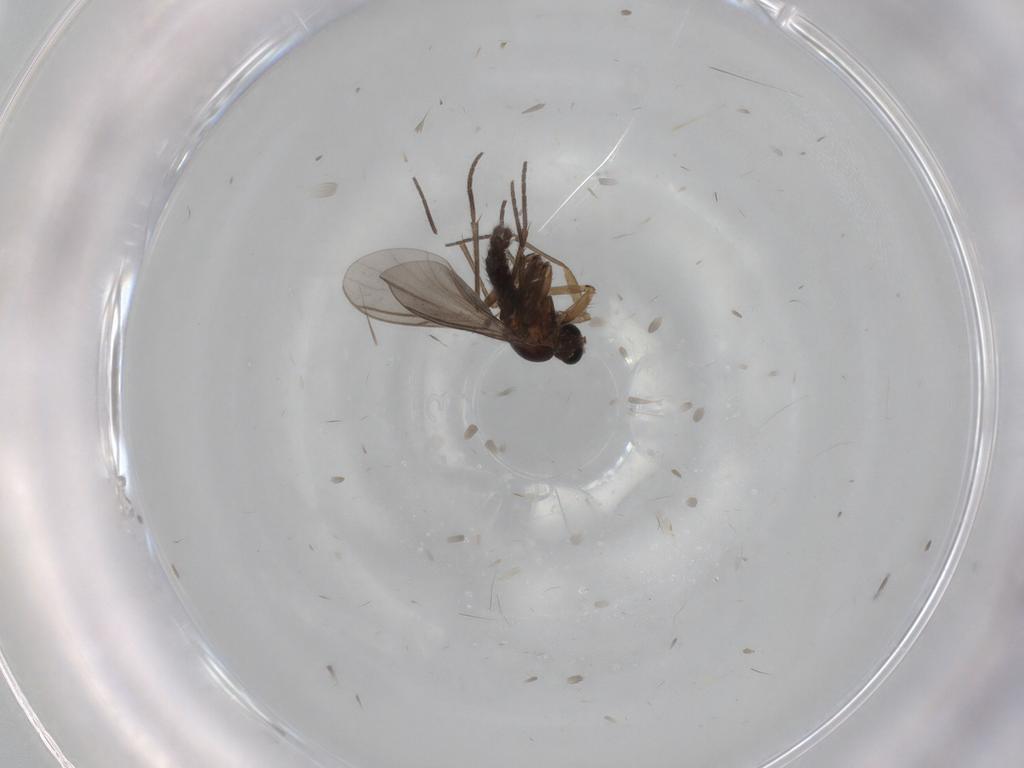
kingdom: Animalia
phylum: Arthropoda
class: Insecta
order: Diptera
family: Sciaridae
